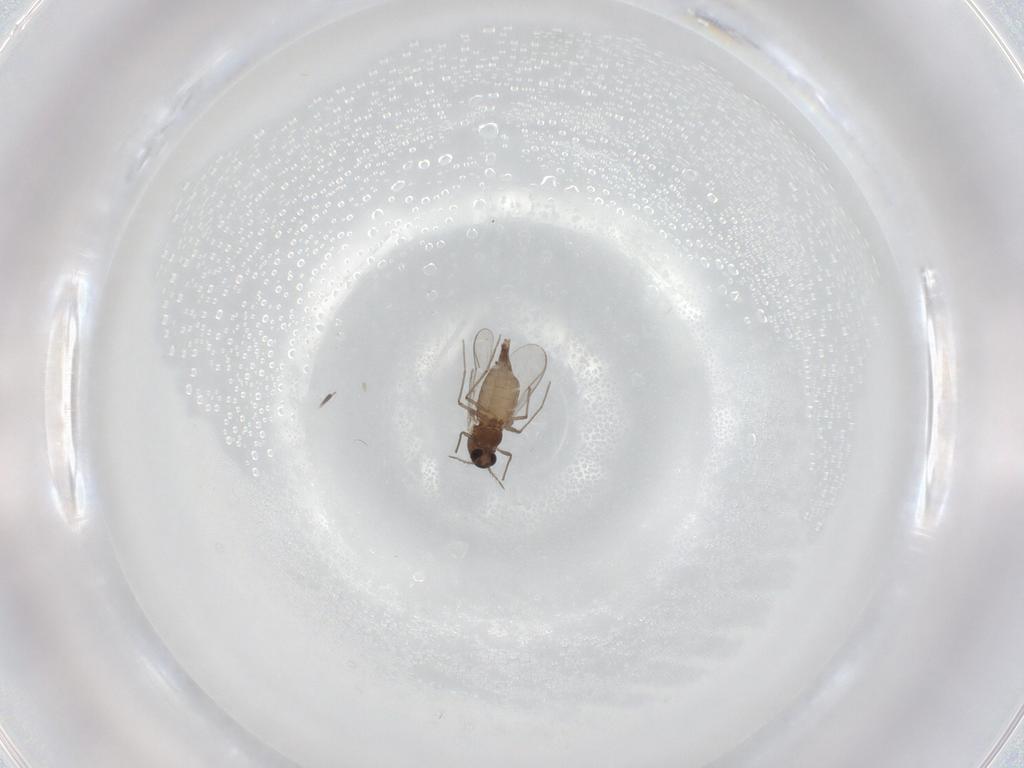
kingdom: Animalia
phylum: Arthropoda
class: Insecta
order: Diptera
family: Chironomidae
